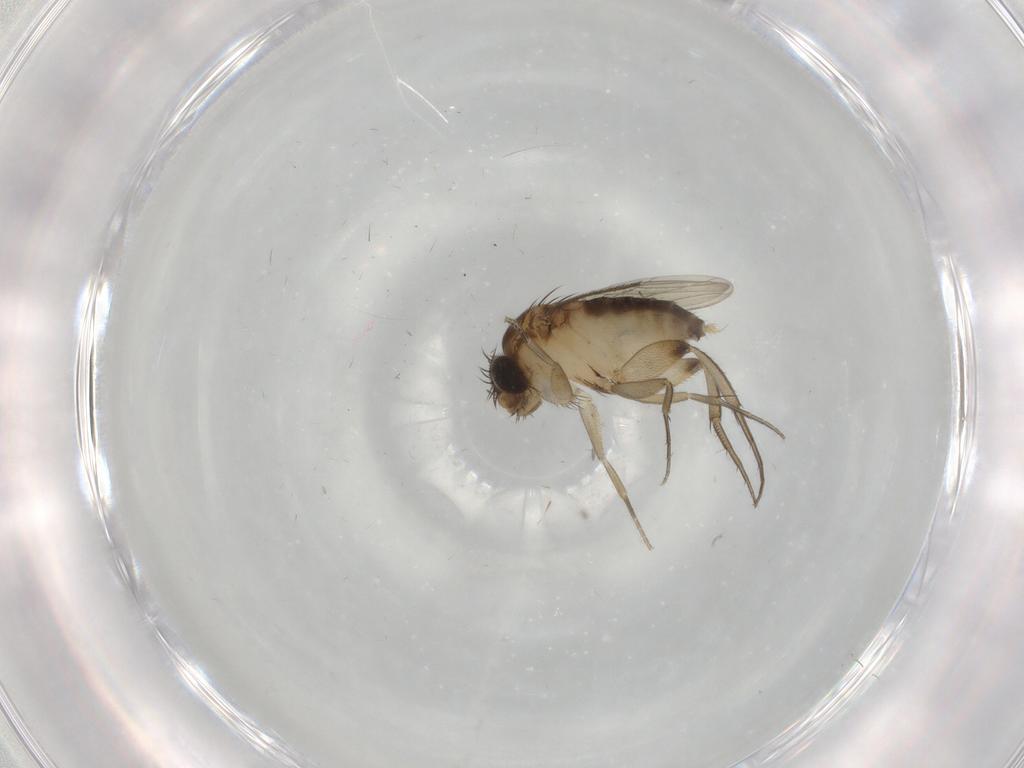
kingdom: Animalia
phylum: Arthropoda
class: Insecta
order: Diptera
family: Phoridae
